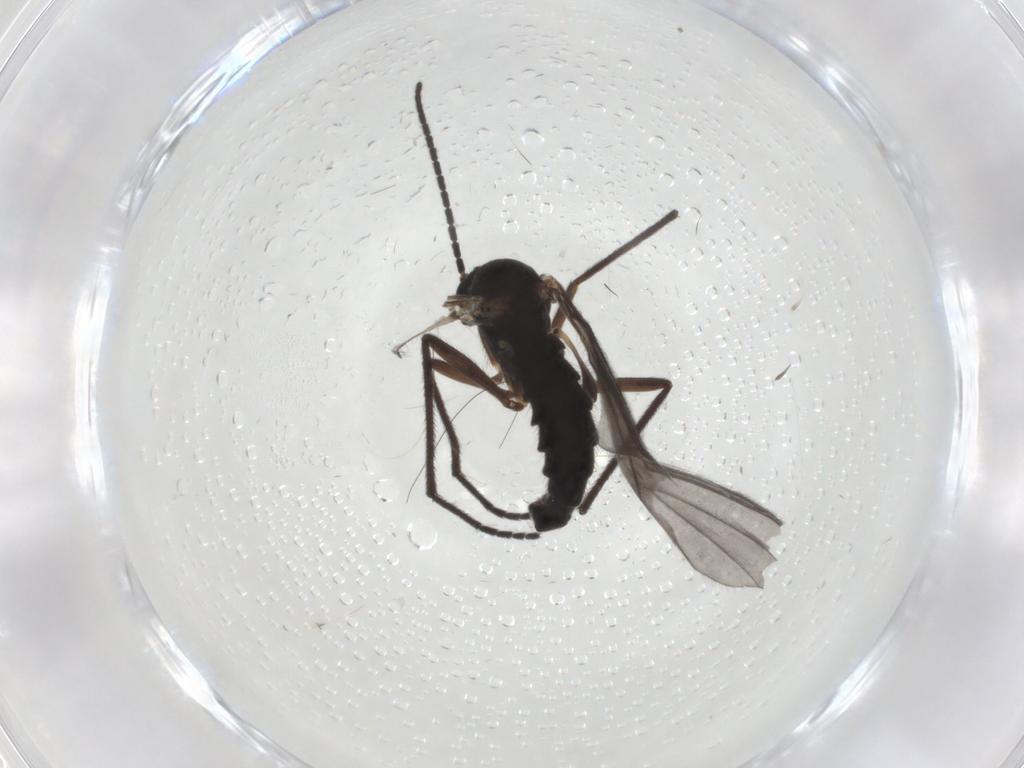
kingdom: Animalia
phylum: Arthropoda
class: Insecta
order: Diptera
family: Sciaridae
